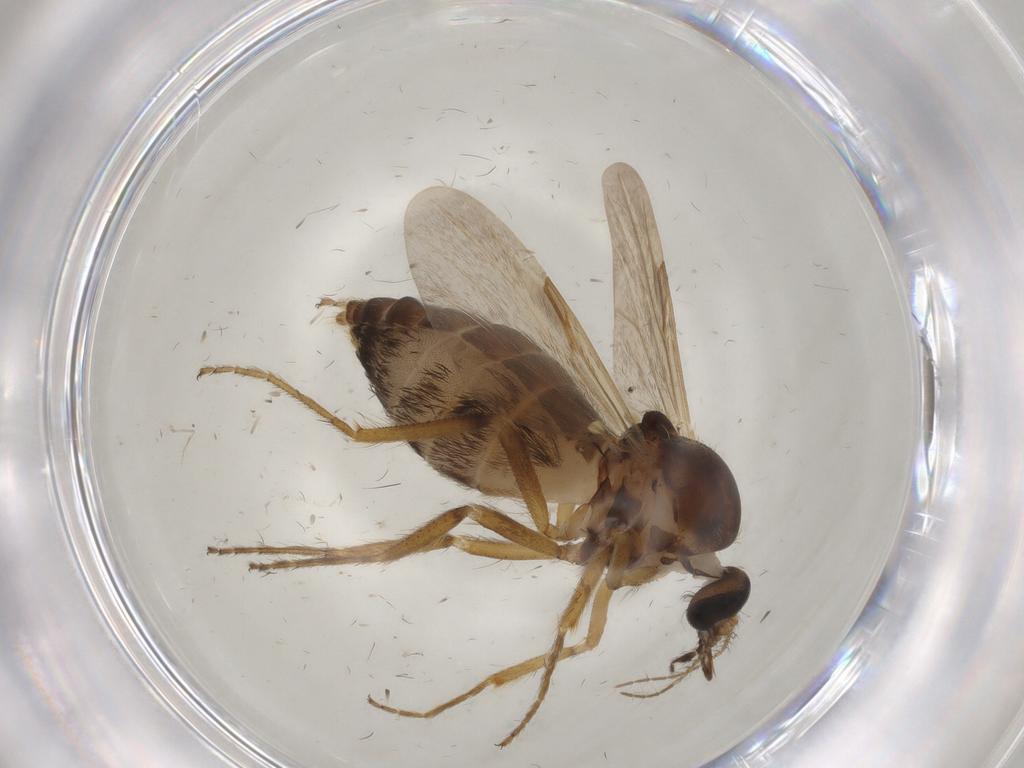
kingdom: Animalia
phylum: Arthropoda
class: Insecta
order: Diptera
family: Ceratopogonidae
